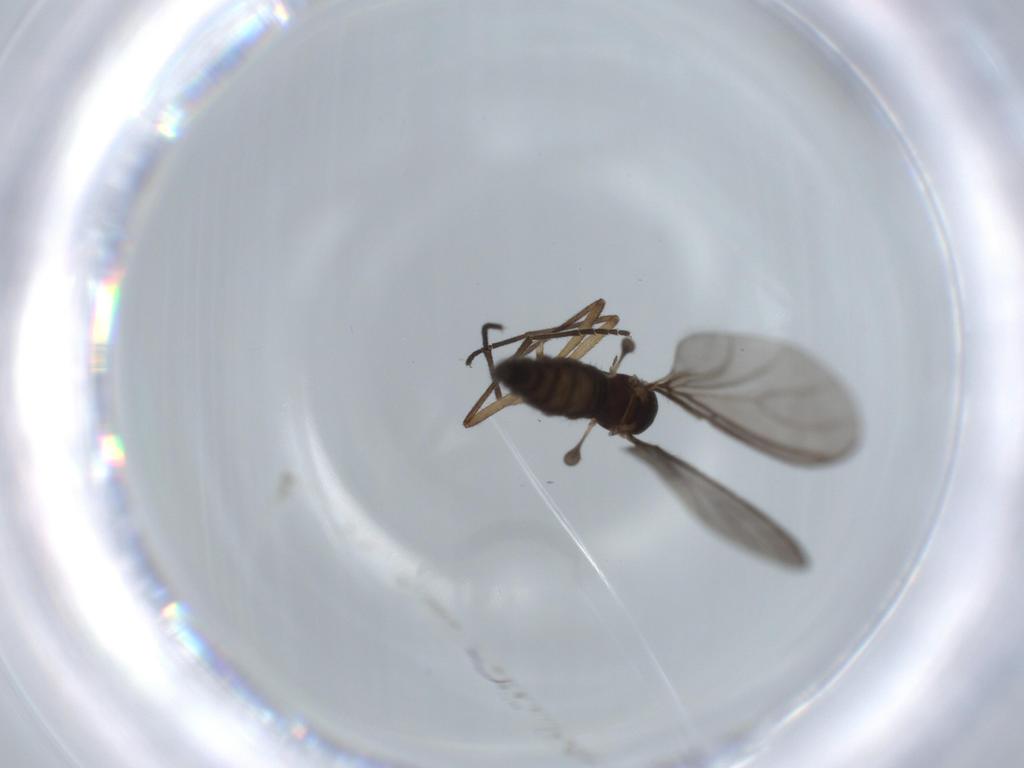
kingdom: Animalia
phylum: Arthropoda
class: Insecta
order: Diptera
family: Sciaridae
